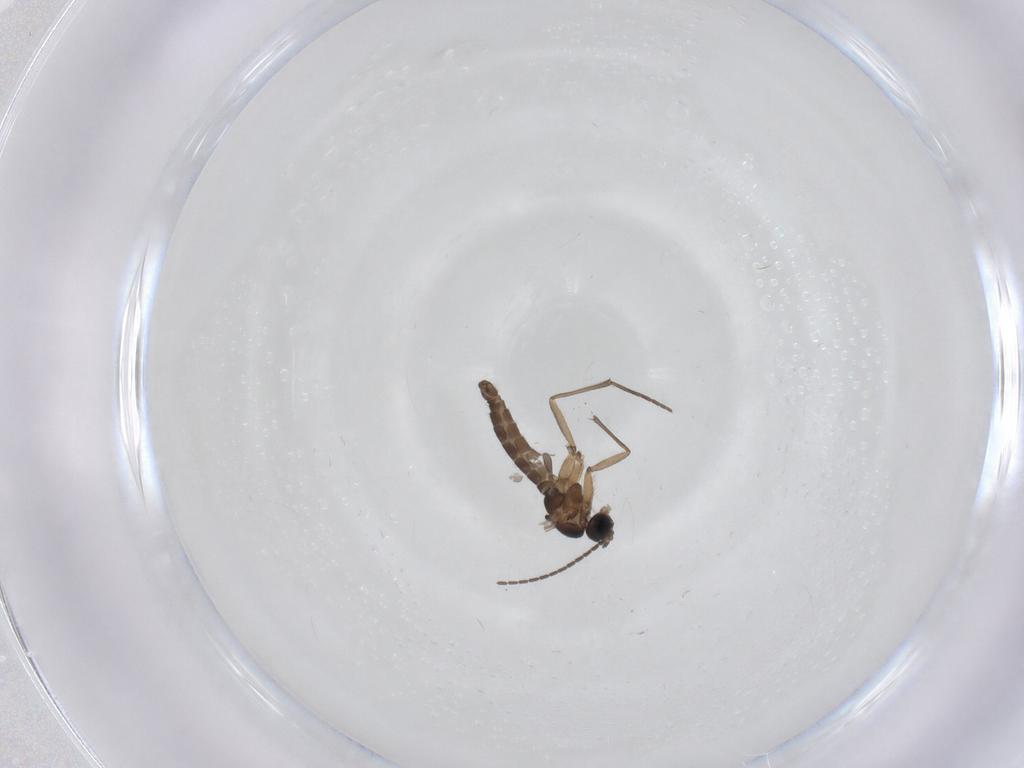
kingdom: Animalia
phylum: Arthropoda
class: Insecta
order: Diptera
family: Sciaridae
